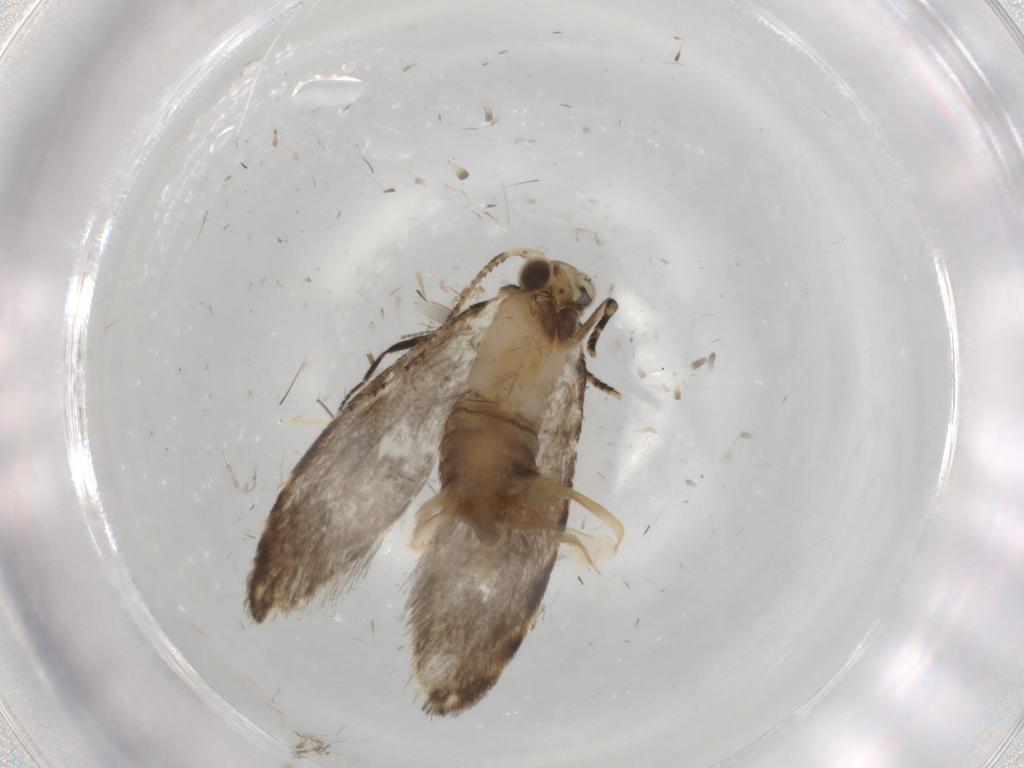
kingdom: Animalia
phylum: Arthropoda
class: Insecta
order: Lepidoptera
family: Tineidae
